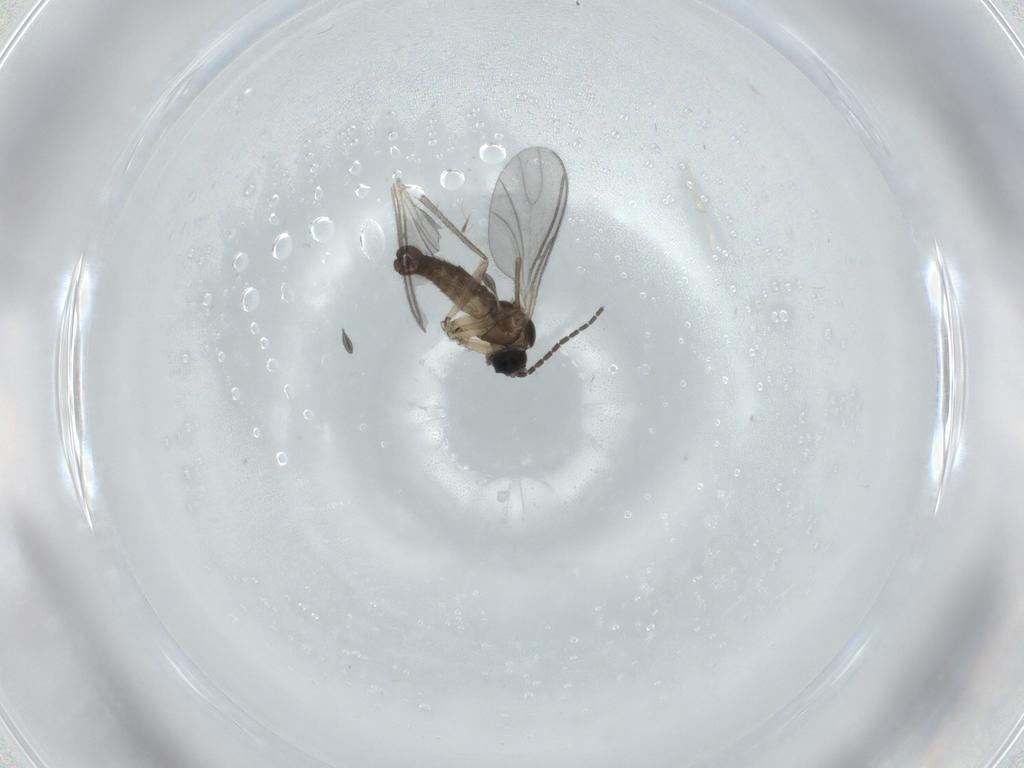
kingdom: Animalia
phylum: Arthropoda
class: Insecta
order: Diptera
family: Sciaridae
